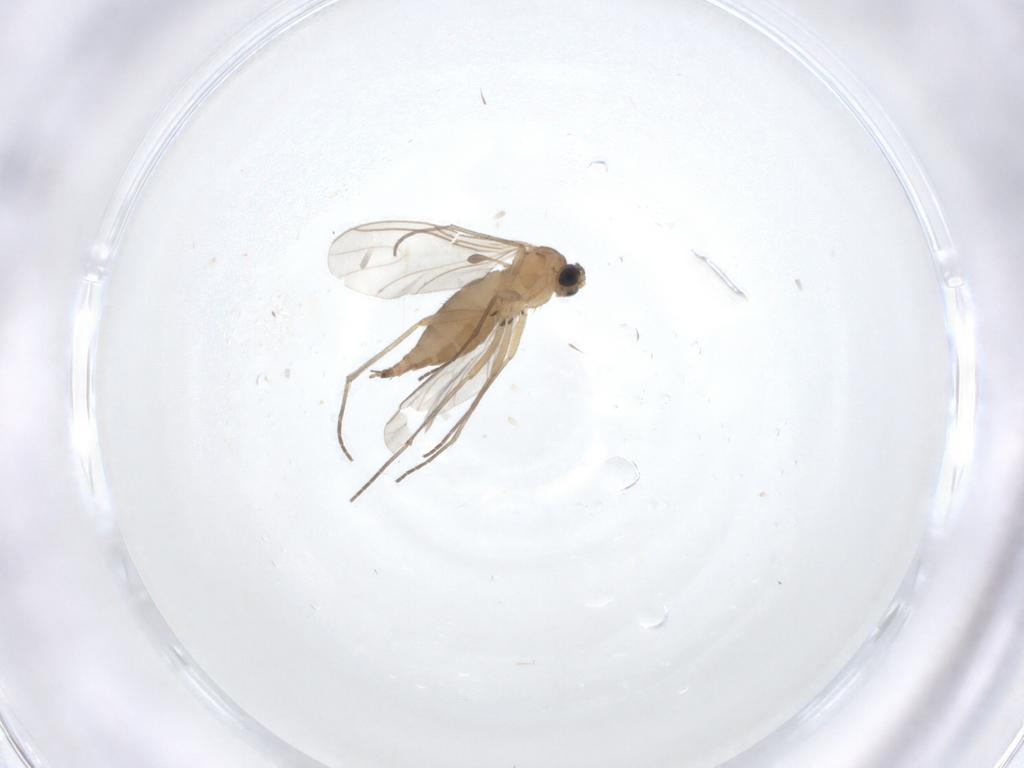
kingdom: Animalia
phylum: Arthropoda
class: Insecta
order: Diptera
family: Sciaridae
